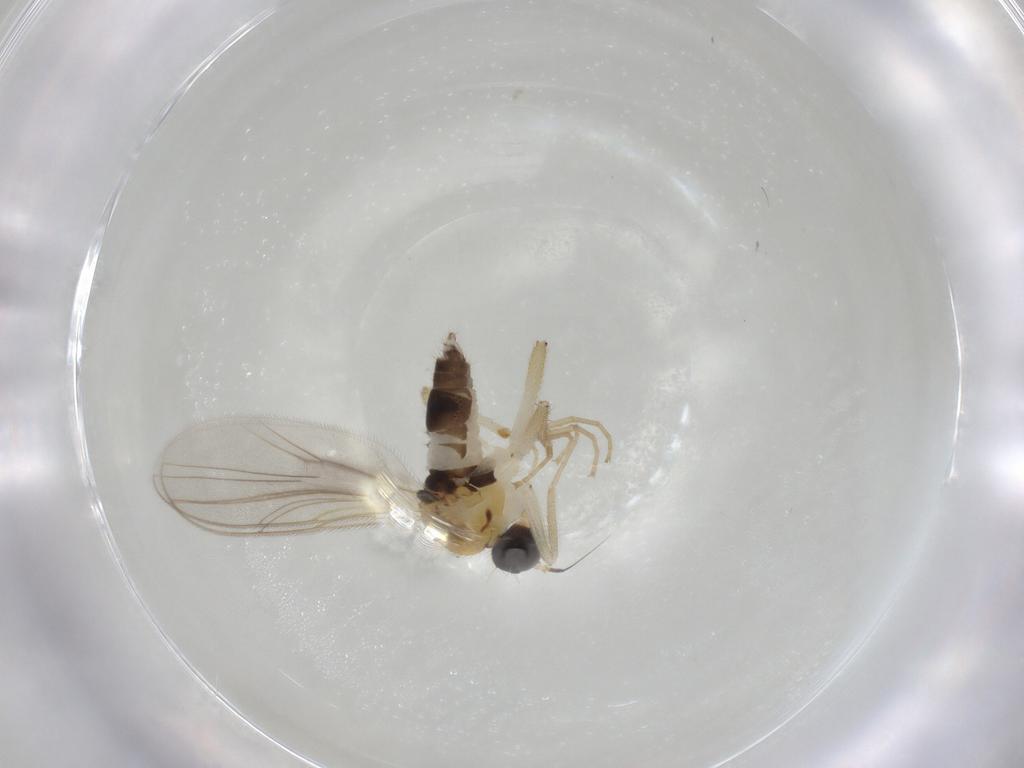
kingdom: Animalia
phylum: Arthropoda
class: Insecta
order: Diptera
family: Hybotidae
